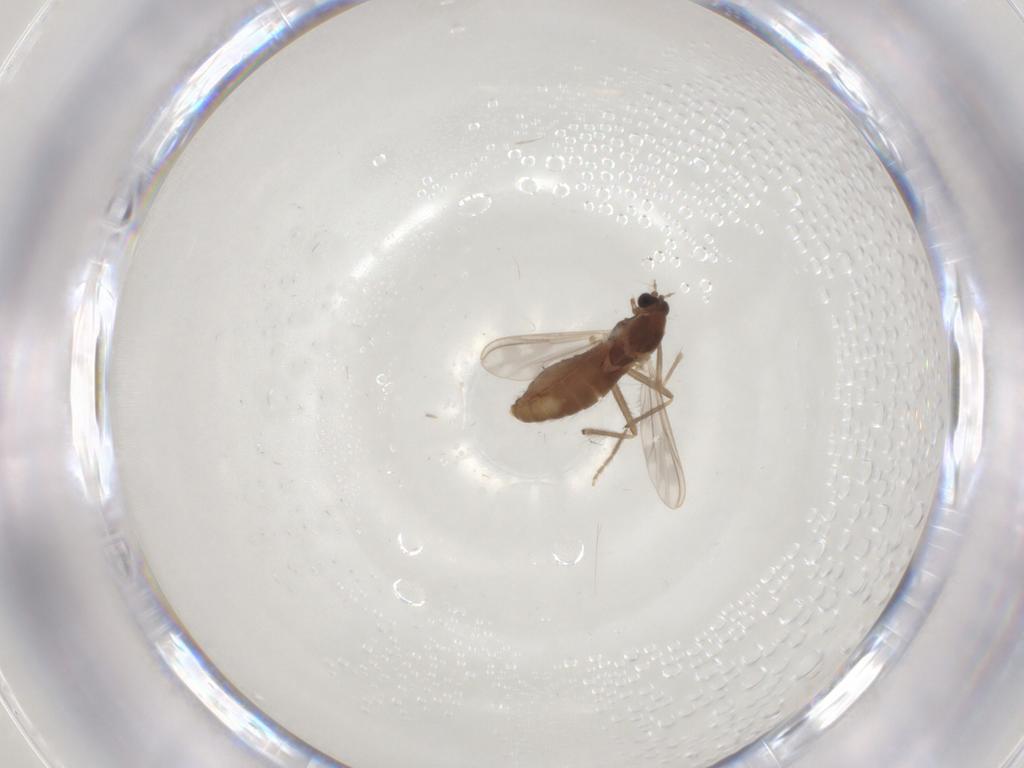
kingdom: Animalia
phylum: Arthropoda
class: Insecta
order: Diptera
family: Chironomidae
